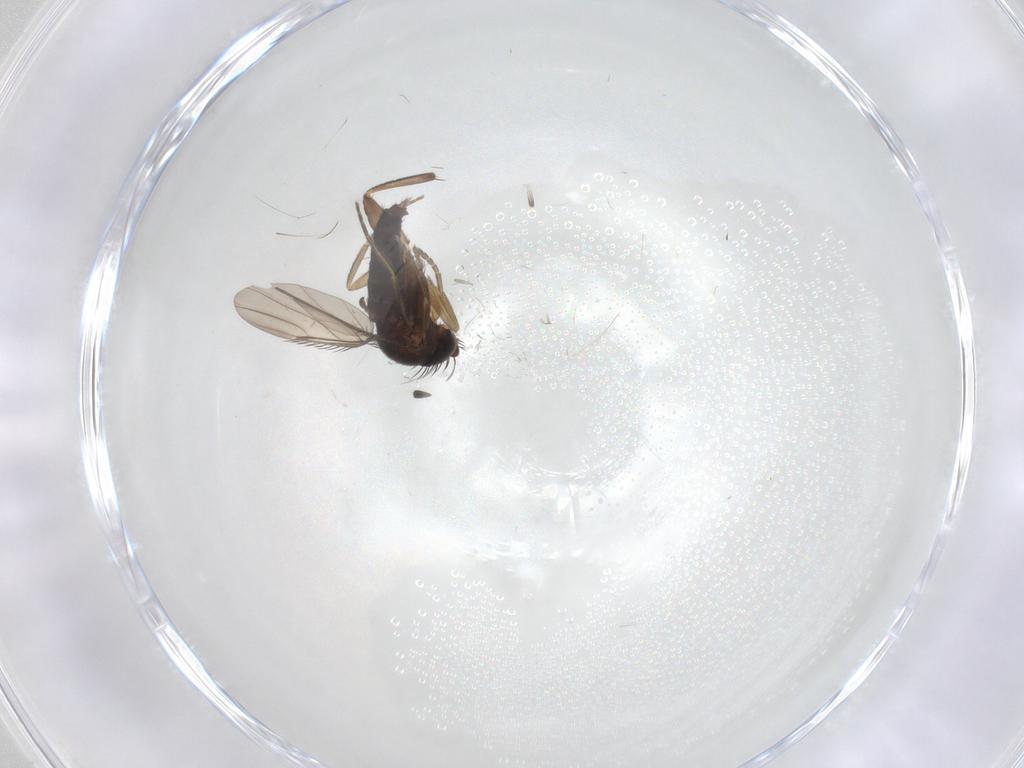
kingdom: Animalia
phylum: Arthropoda
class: Insecta
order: Diptera
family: Phoridae
